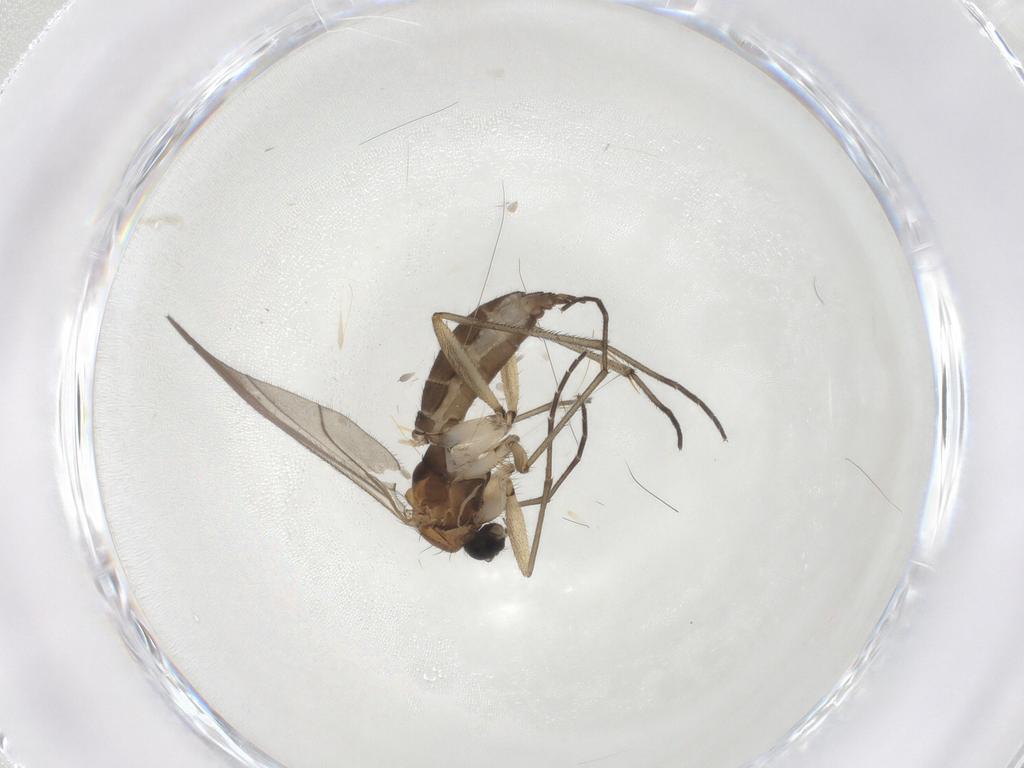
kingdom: Animalia
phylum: Arthropoda
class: Insecta
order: Diptera
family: Sciaridae
